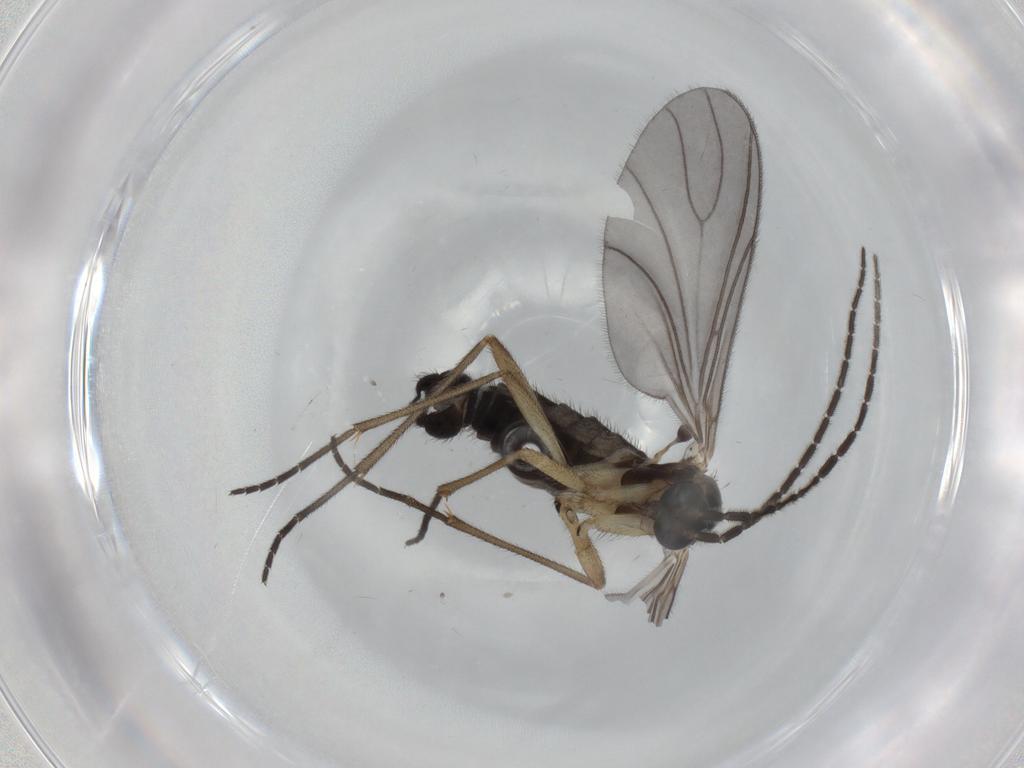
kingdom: Animalia
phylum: Arthropoda
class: Insecta
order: Diptera
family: Sciaridae
